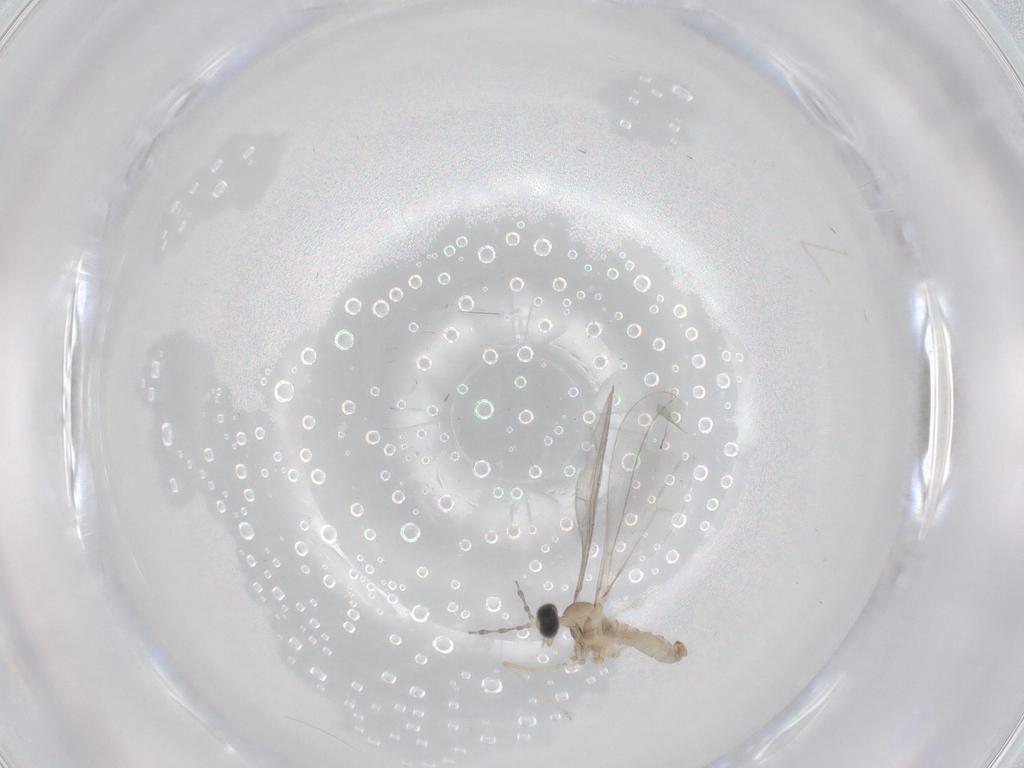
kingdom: Animalia
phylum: Arthropoda
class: Insecta
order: Diptera
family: Cecidomyiidae
